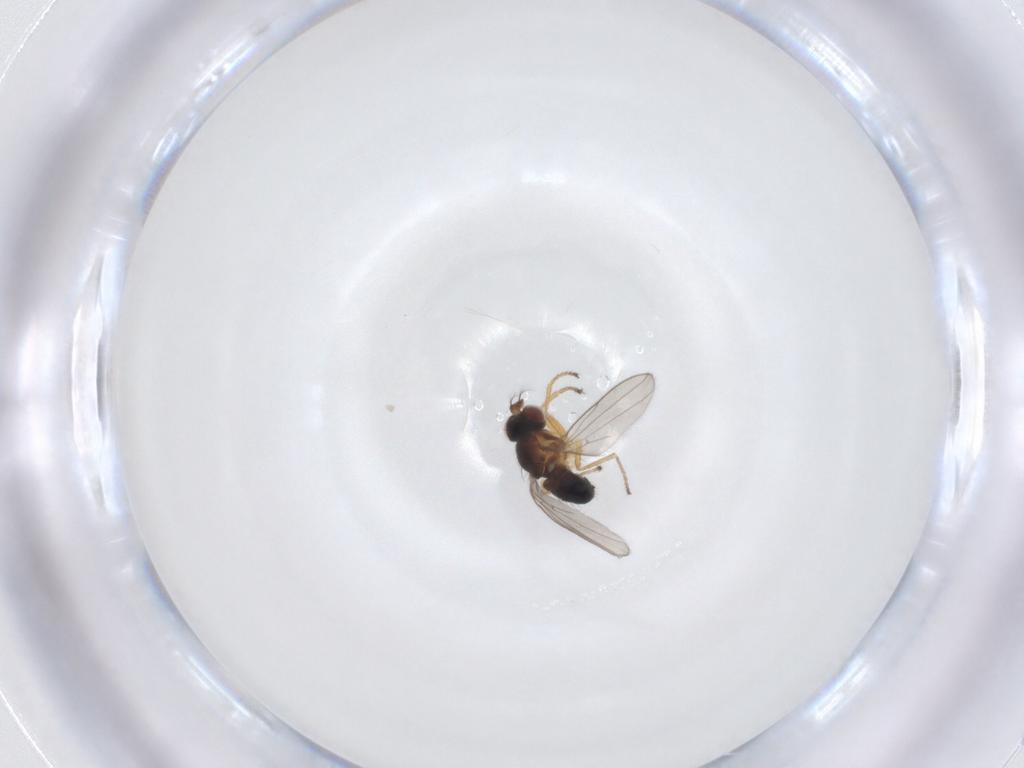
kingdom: Animalia
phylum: Arthropoda
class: Insecta
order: Diptera
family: Ephydridae
